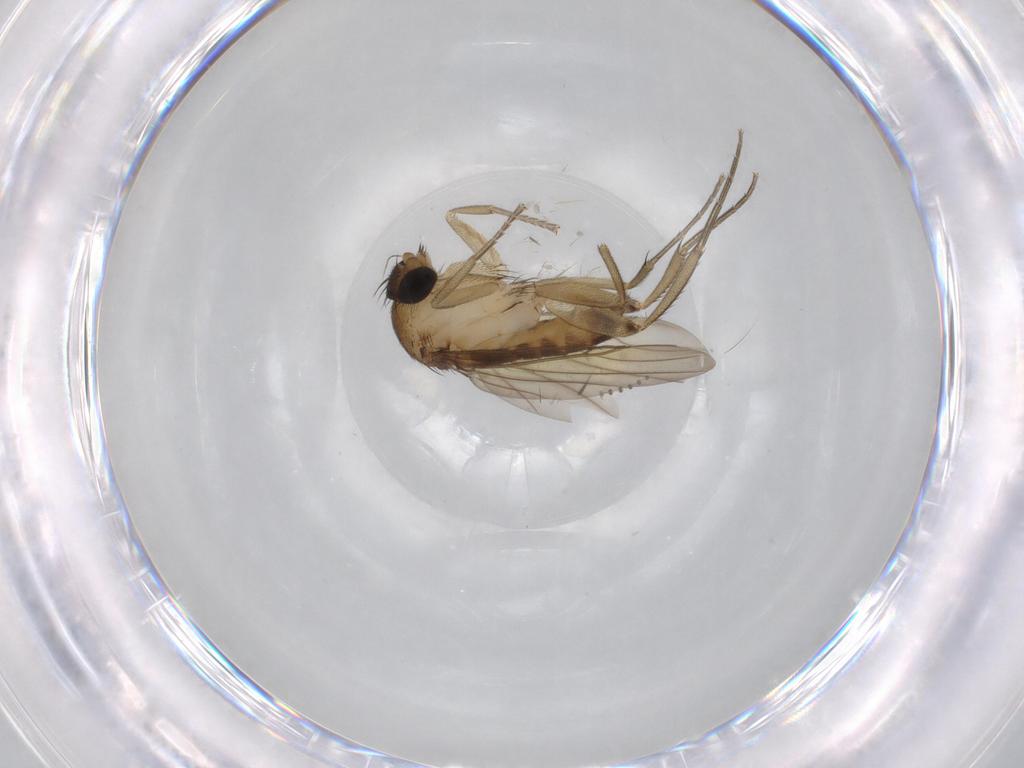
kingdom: Animalia
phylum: Arthropoda
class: Insecta
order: Diptera
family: Phoridae
